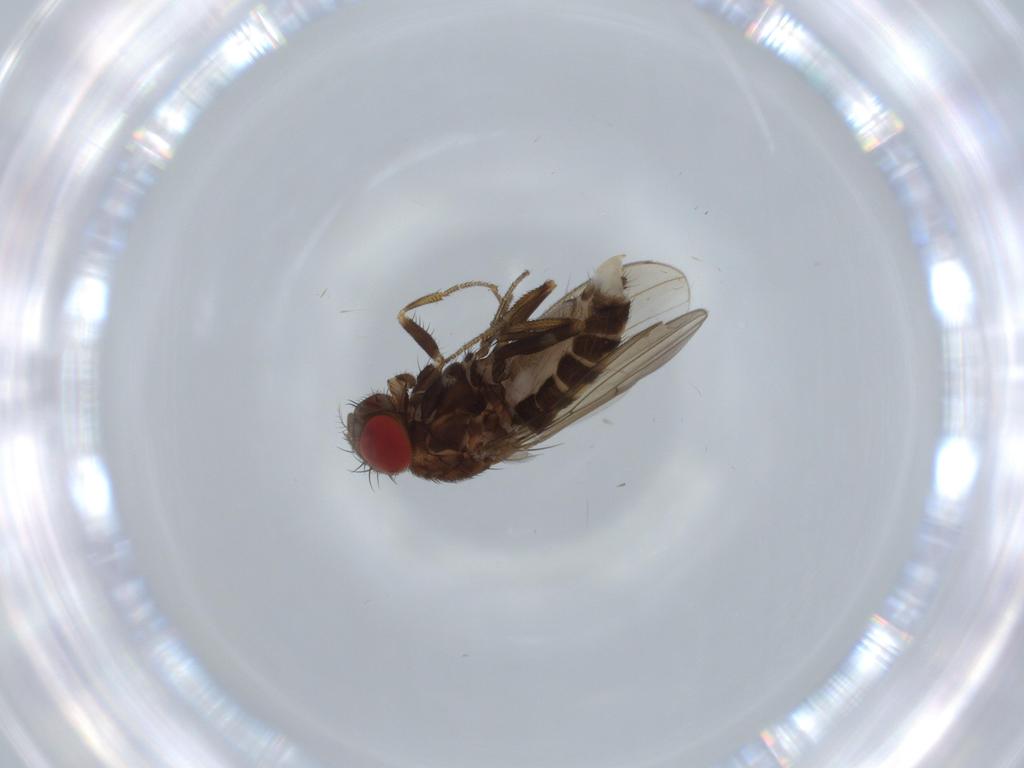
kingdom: Animalia
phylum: Arthropoda
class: Insecta
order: Diptera
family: Drosophilidae
